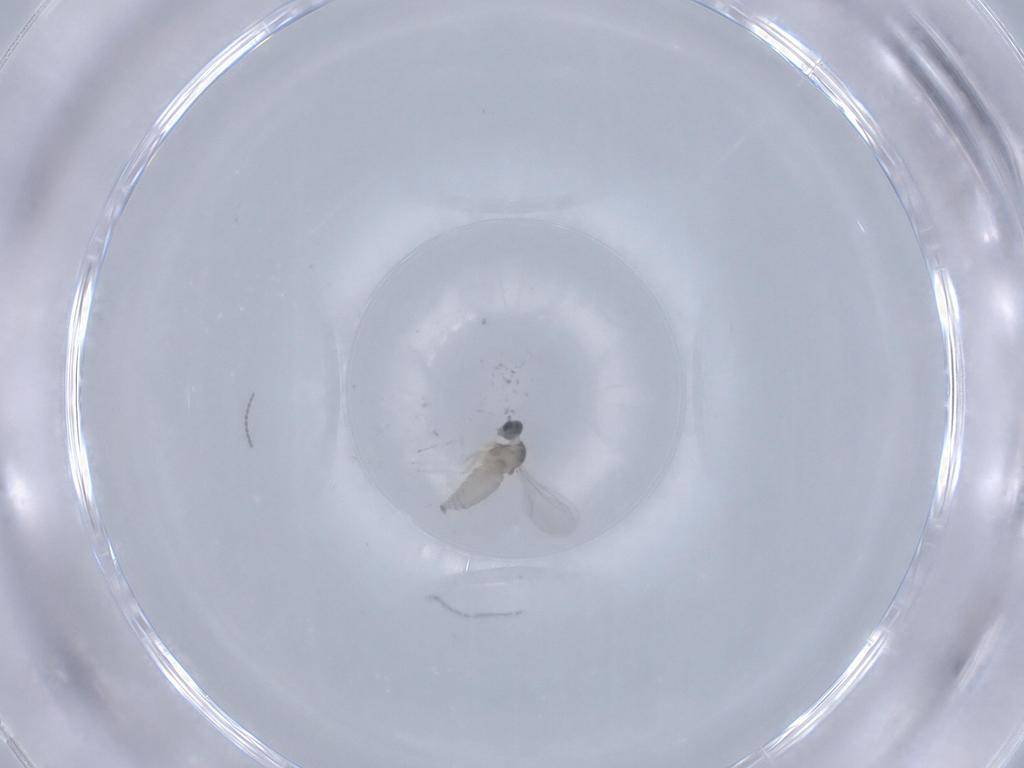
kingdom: Animalia
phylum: Arthropoda
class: Insecta
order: Diptera
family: Cecidomyiidae
